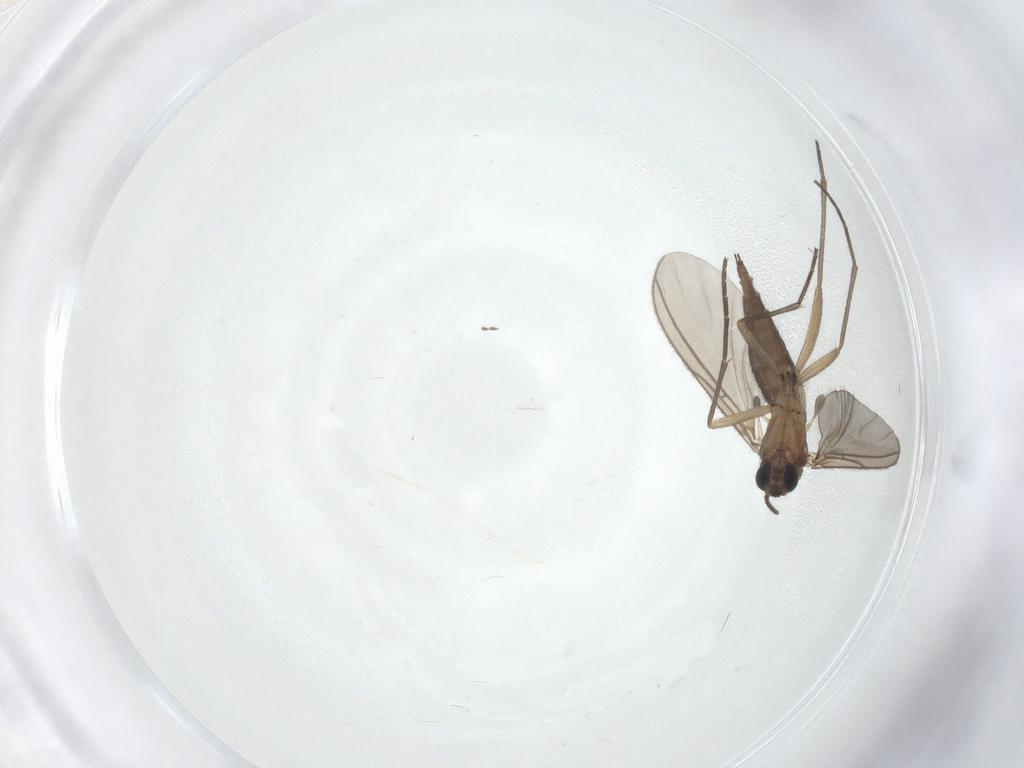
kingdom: Animalia
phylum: Arthropoda
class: Insecta
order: Diptera
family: Sciaridae
